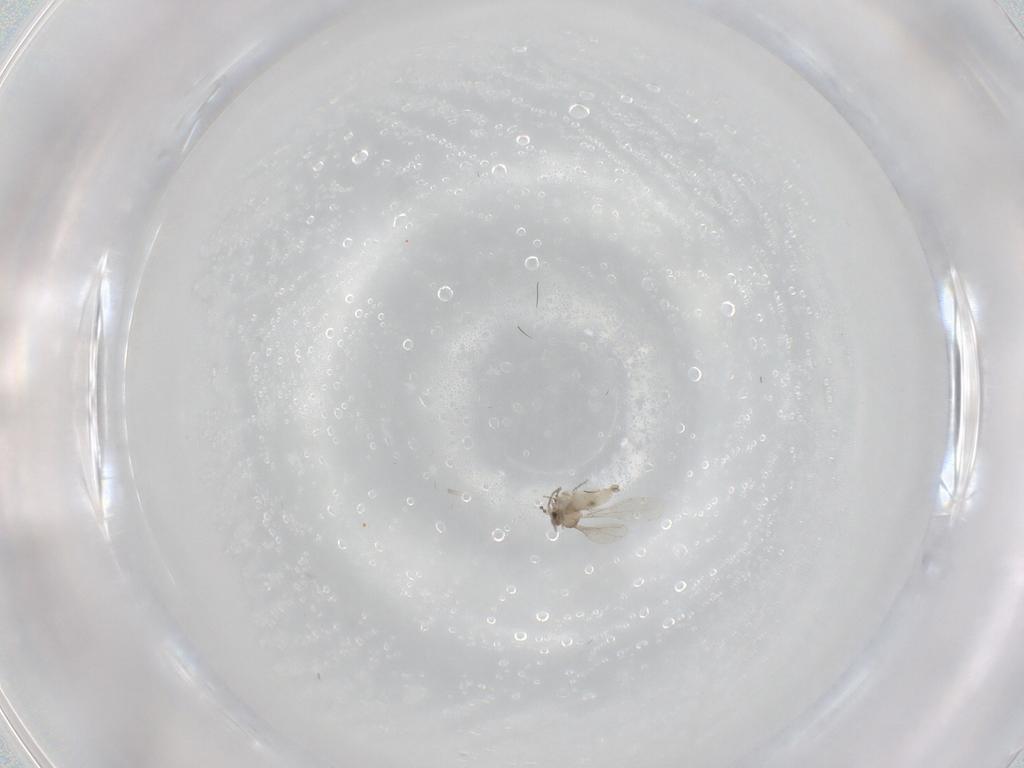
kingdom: Animalia
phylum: Arthropoda
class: Insecta
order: Diptera
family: Cecidomyiidae
